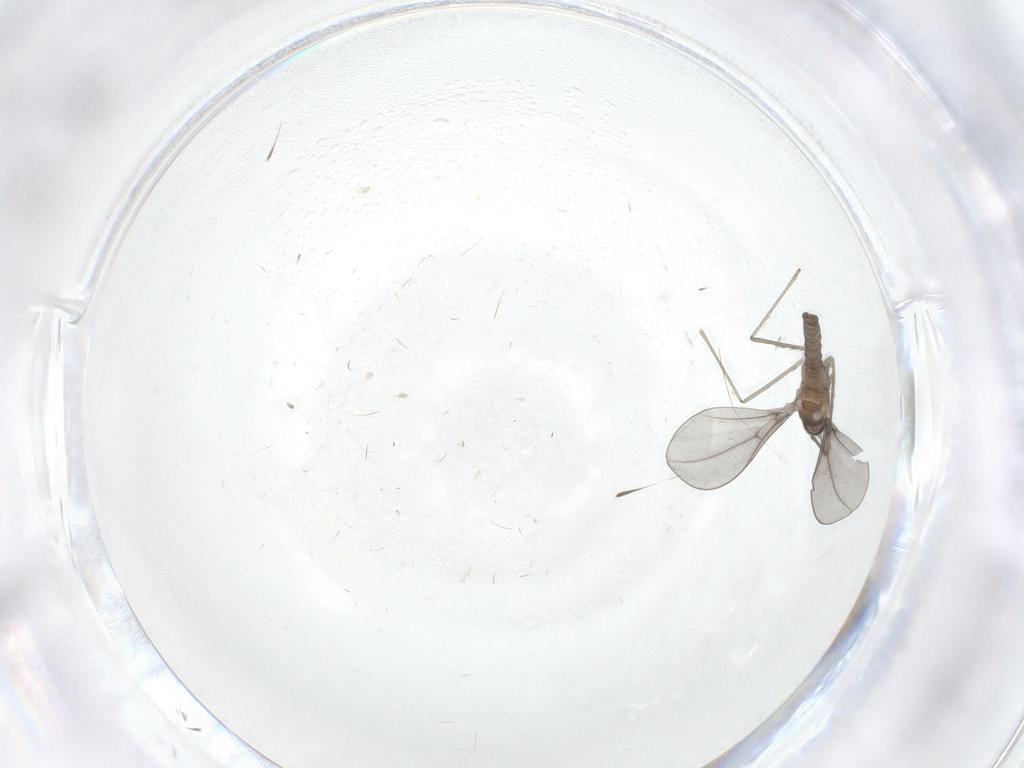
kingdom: Animalia
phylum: Arthropoda
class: Insecta
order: Diptera
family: Cecidomyiidae
